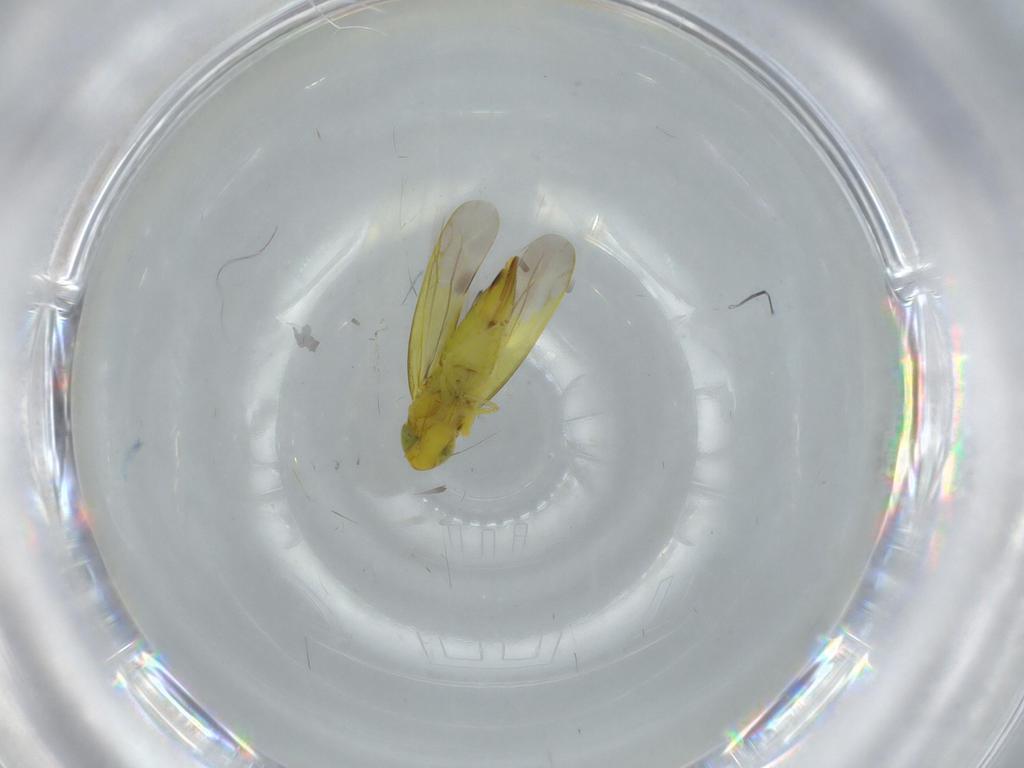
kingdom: Animalia
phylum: Arthropoda
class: Insecta
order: Hemiptera
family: Cicadellidae
